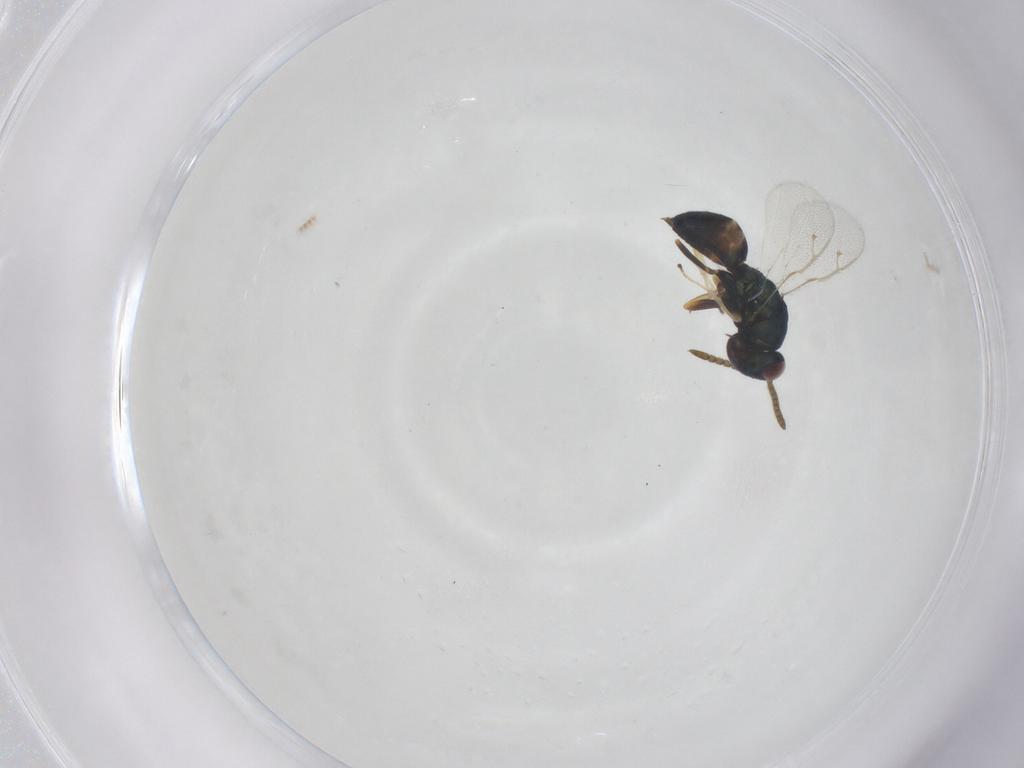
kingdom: Animalia
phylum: Arthropoda
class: Insecta
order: Hymenoptera
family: Pteromalidae
